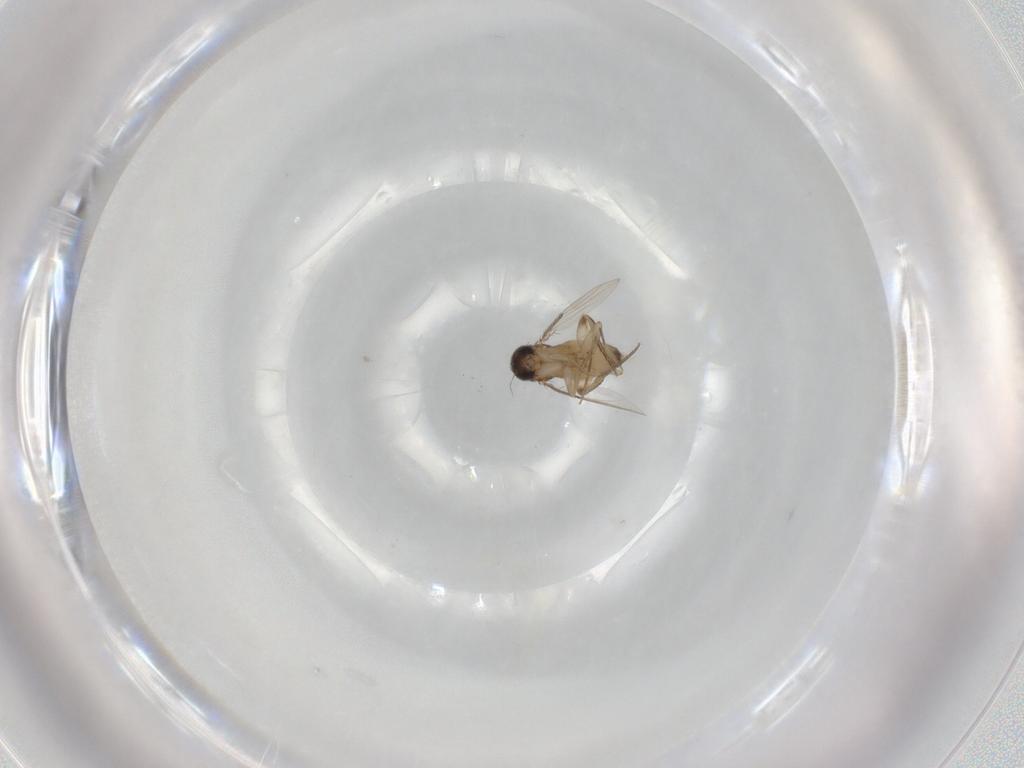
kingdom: Animalia
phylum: Arthropoda
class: Insecta
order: Diptera
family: Phoridae
